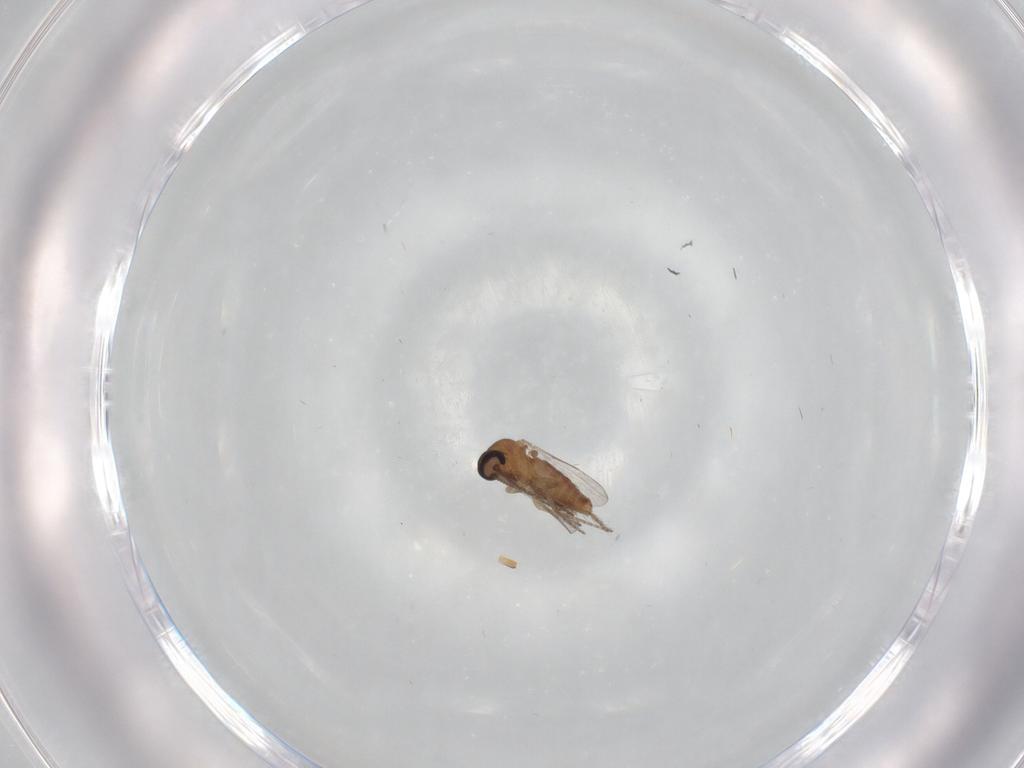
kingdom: Animalia
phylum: Arthropoda
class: Insecta
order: Diptera
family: Ceratopogonidae
